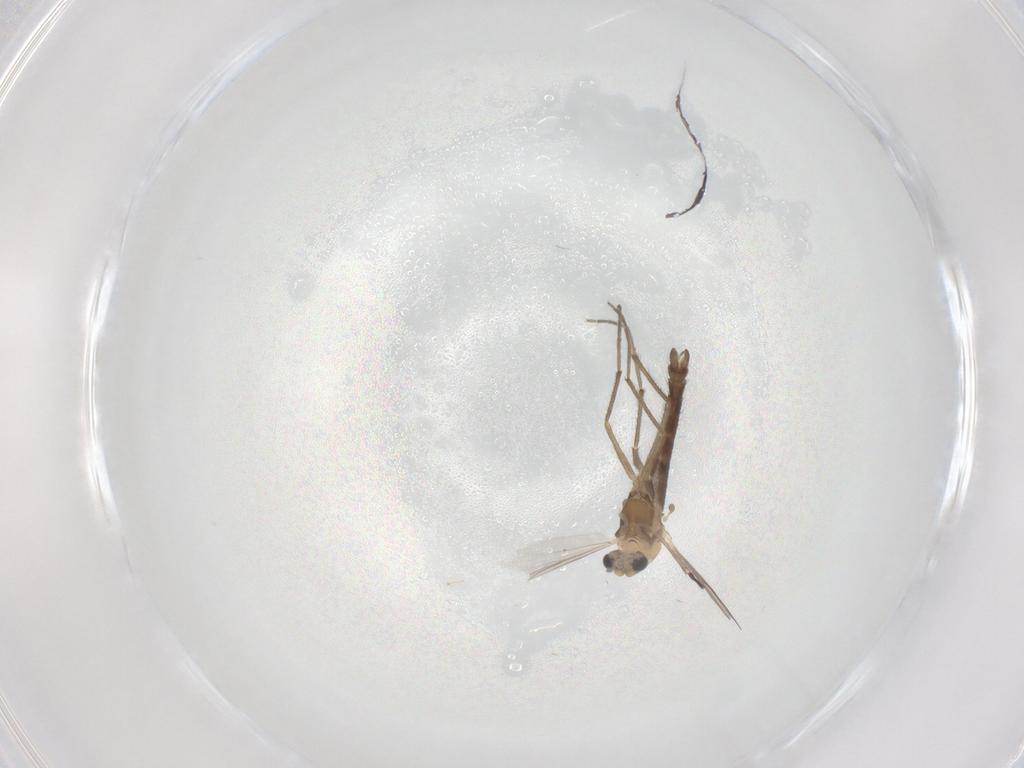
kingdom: Animalia
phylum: Arthropoda
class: Insecta
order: Diptera
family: Chironomidae
